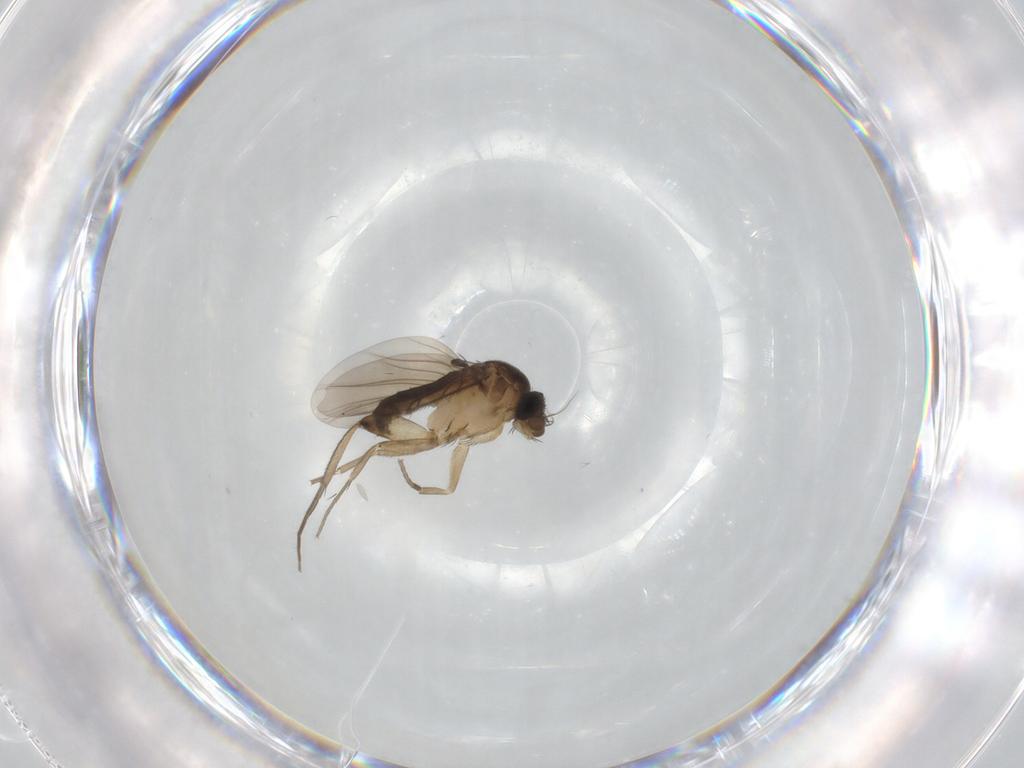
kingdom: Animalia
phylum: Arthropoda
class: Insecta
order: Diptera
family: Phoridae
